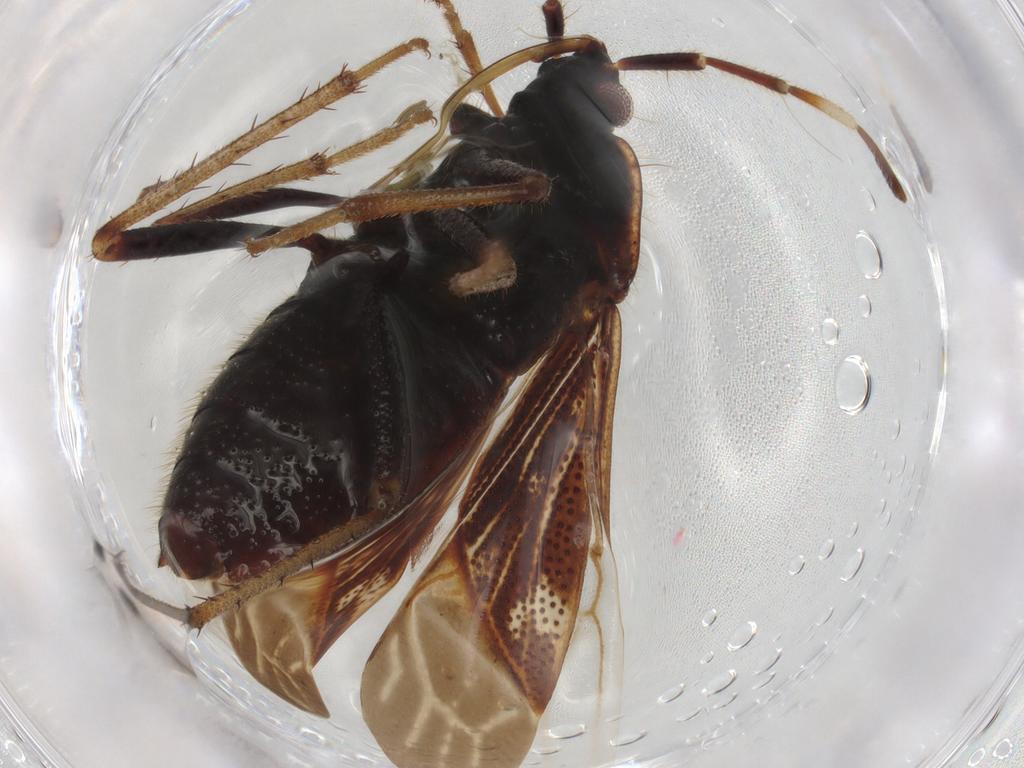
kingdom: Animalia
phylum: Arthropoda
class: Insecta
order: Hemiptera
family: Rhyparochromidae
